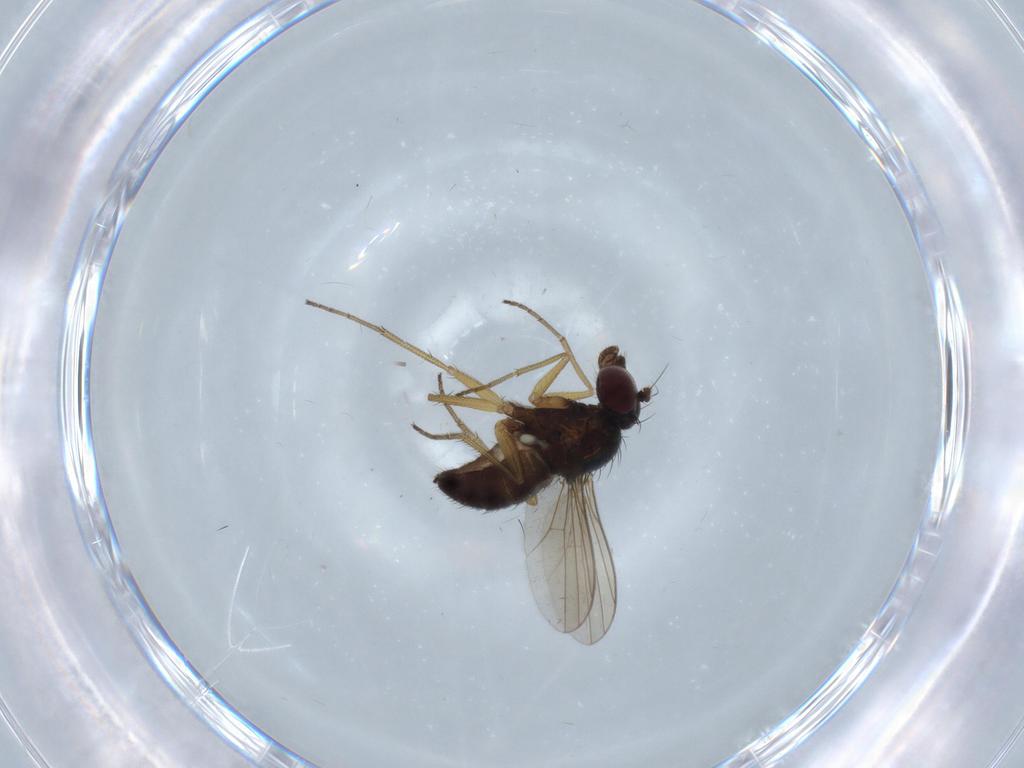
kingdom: Animalia
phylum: Arthropoda
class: Insecta
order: Diptera
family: Dolichopodidae
